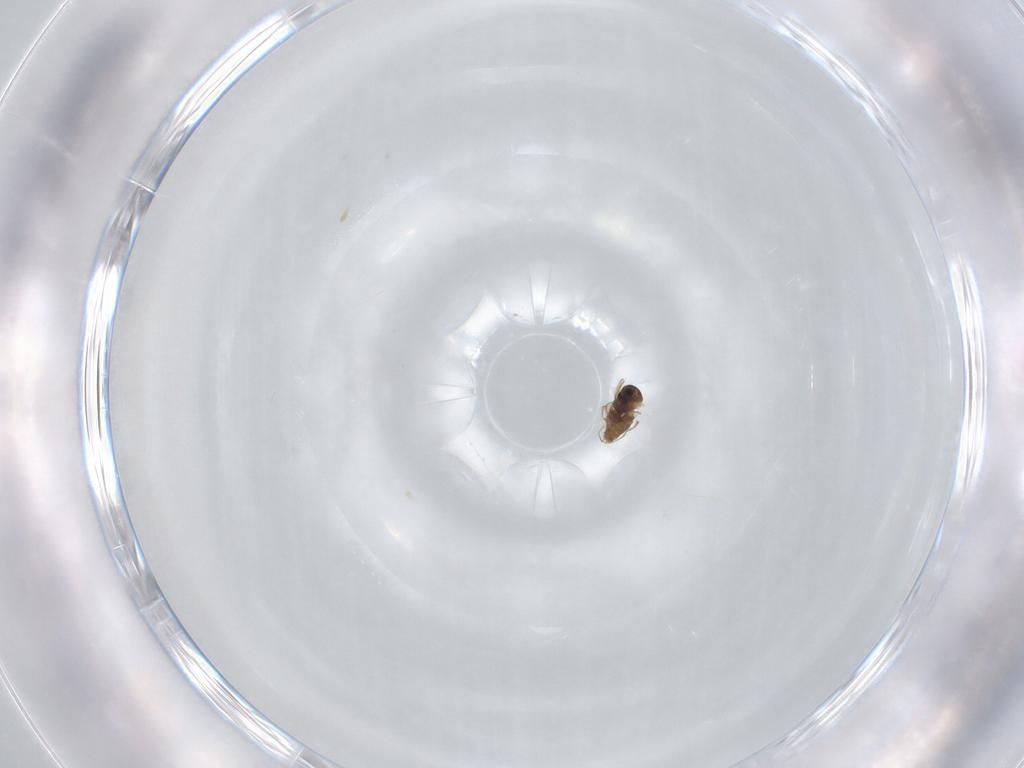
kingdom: Animalia
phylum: Arthropoda
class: Insecta
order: Diptera
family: Cecidomyiidae
